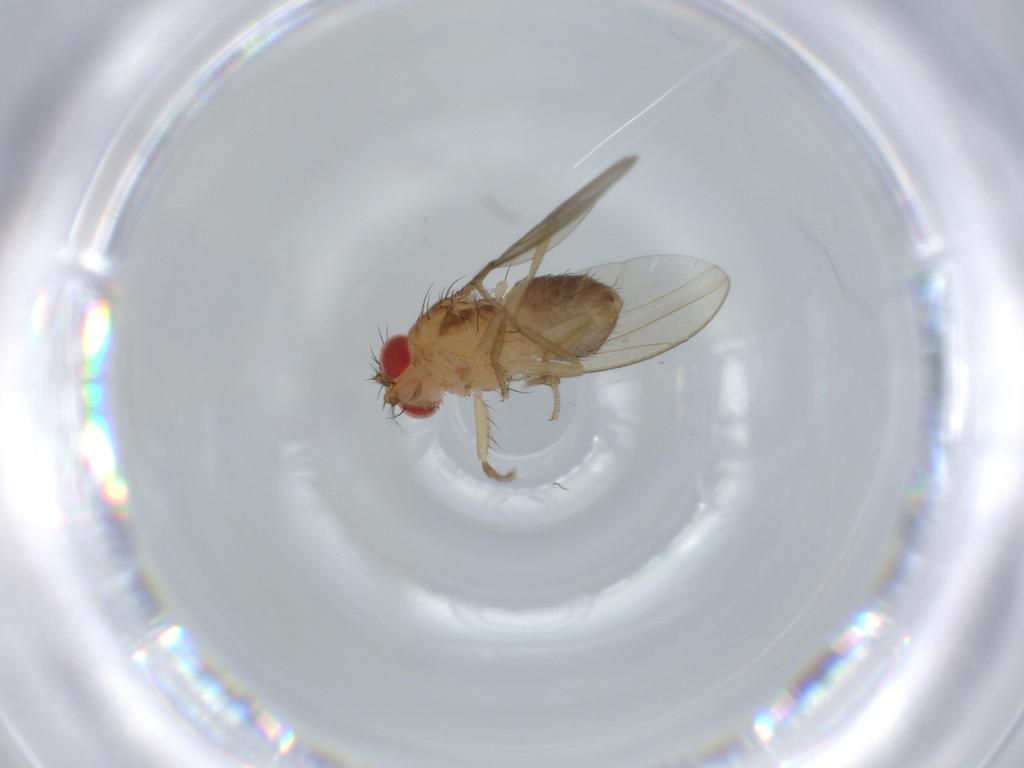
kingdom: Animalia
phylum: Arthropoda
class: Insecta
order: Diptera
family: Drosophilidae
